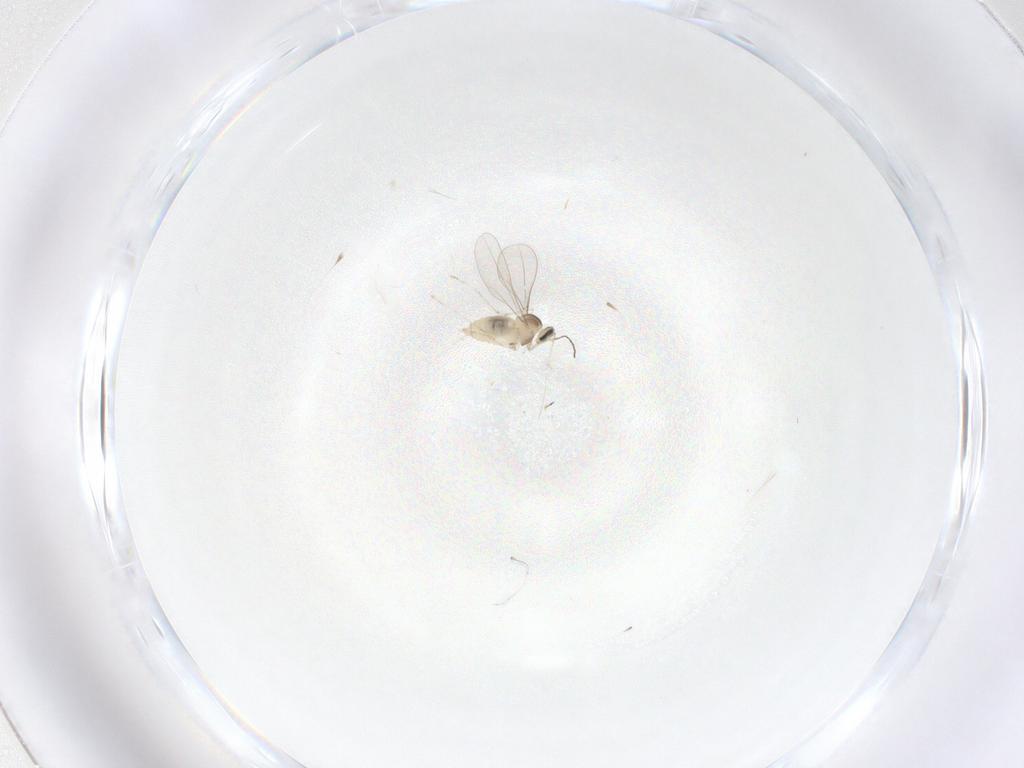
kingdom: Animalia
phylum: Arthropoda
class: Insecta
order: Diptera
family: Cecidomyiidae
